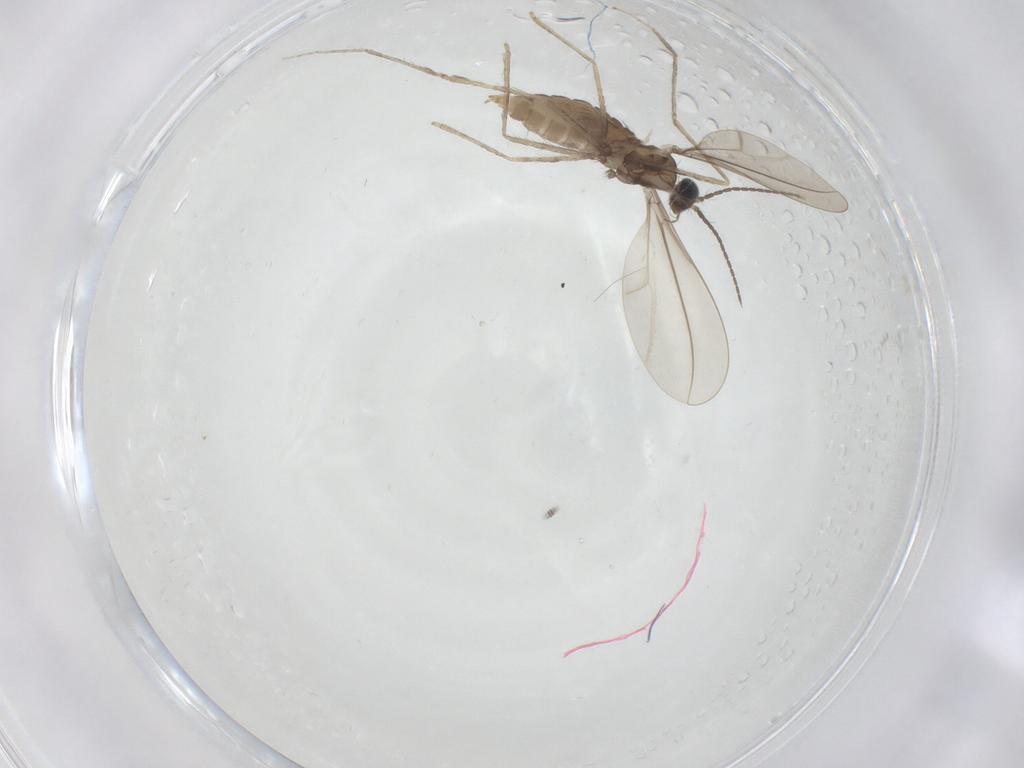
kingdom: Animalia
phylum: Arthropoda
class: Insecta
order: Diptera
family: Cecidomyiidae
